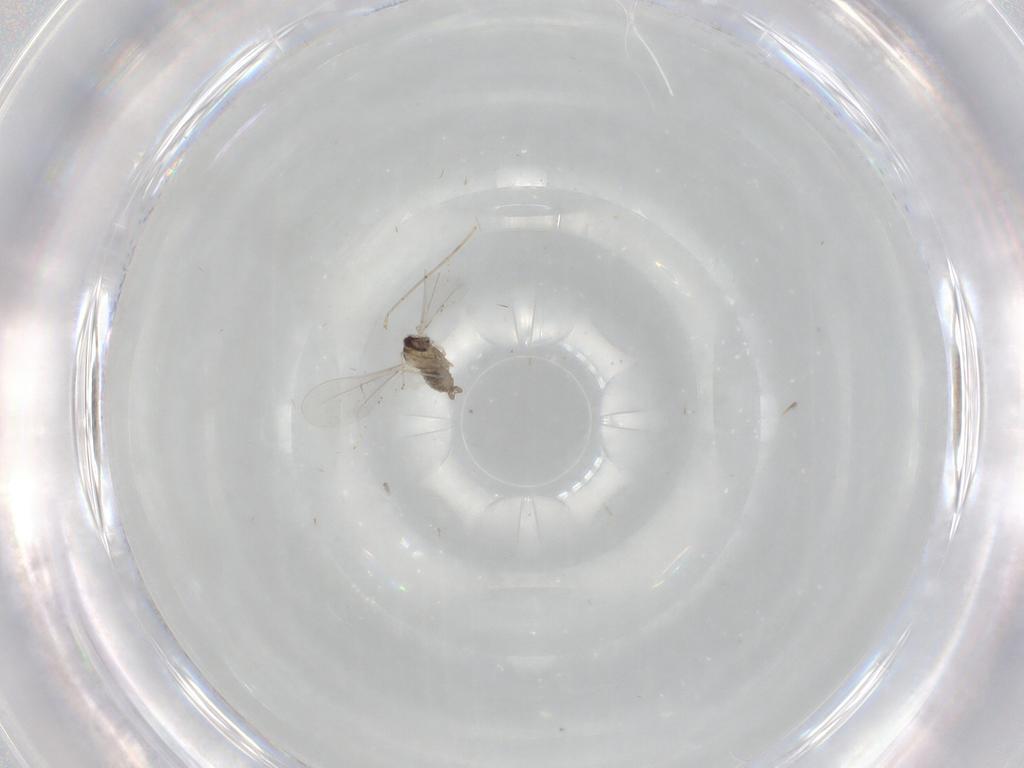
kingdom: Animalia
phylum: Arthropoda
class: Insecta
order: Diptera
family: Cecidomyiidae
